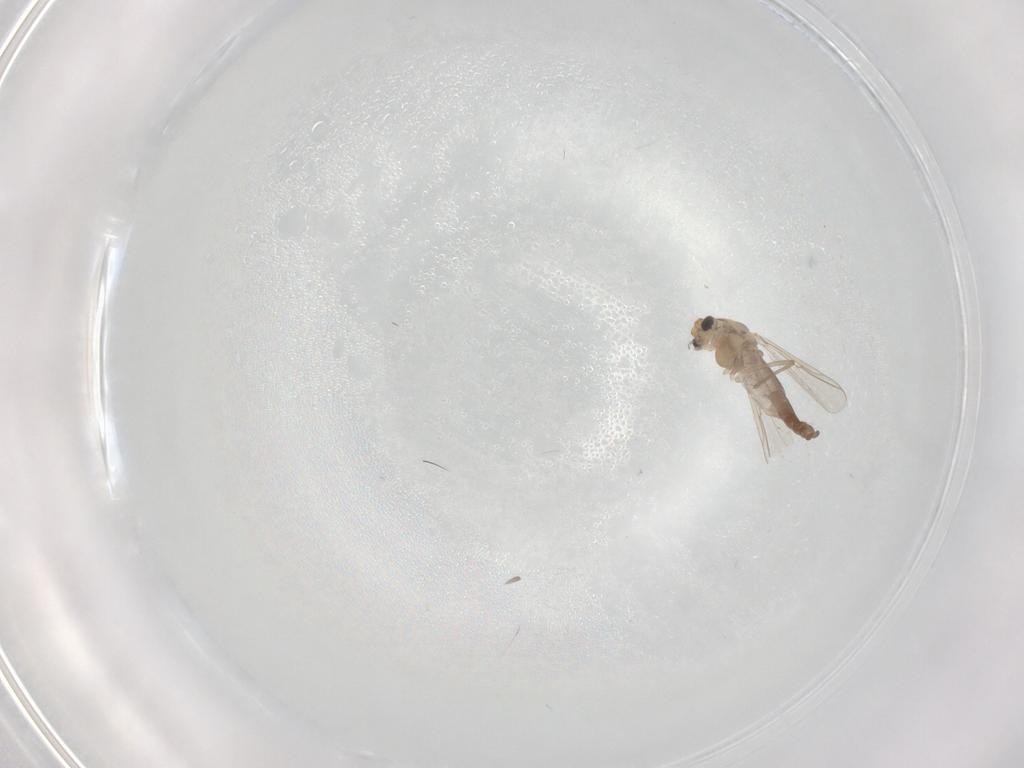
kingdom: Animalia
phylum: Arthropoda
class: Insecta
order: Diptera
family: Chironomidae
